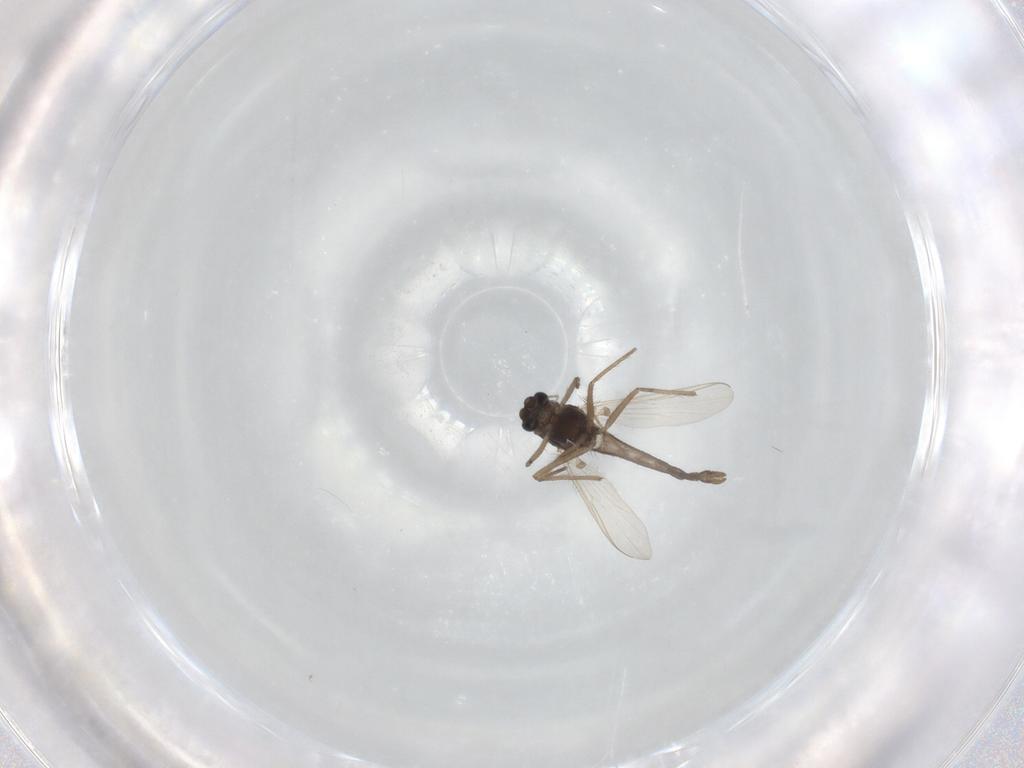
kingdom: Animalia
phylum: Arthropoda
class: Insecta
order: Diptera
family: Chironomidae
